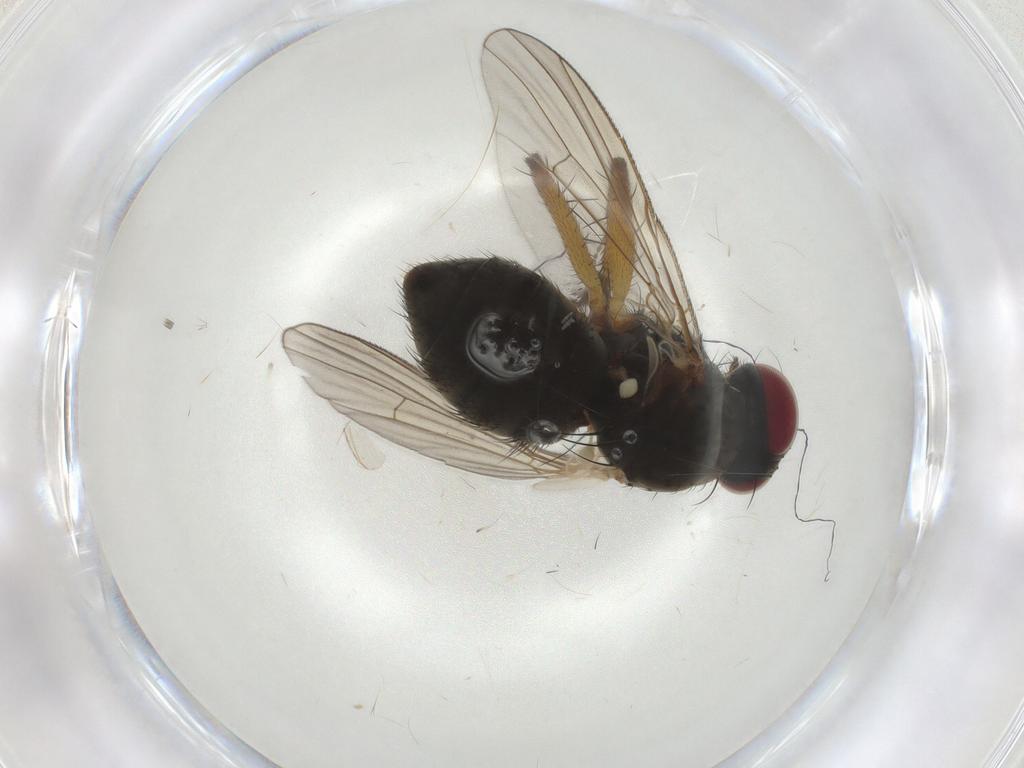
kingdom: Animalia
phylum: Arthropoda
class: Insecta
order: Diptera
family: Muscidae
